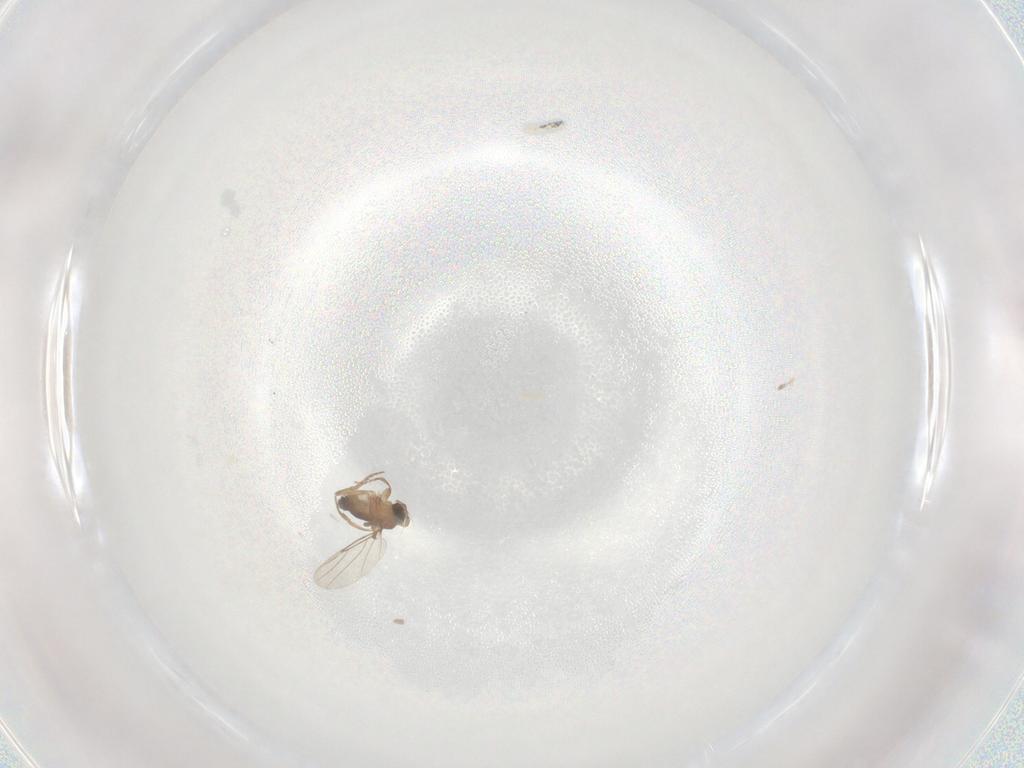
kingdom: Animalia
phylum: Arthropoda
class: Insecta
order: Diptera
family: Phoridae
